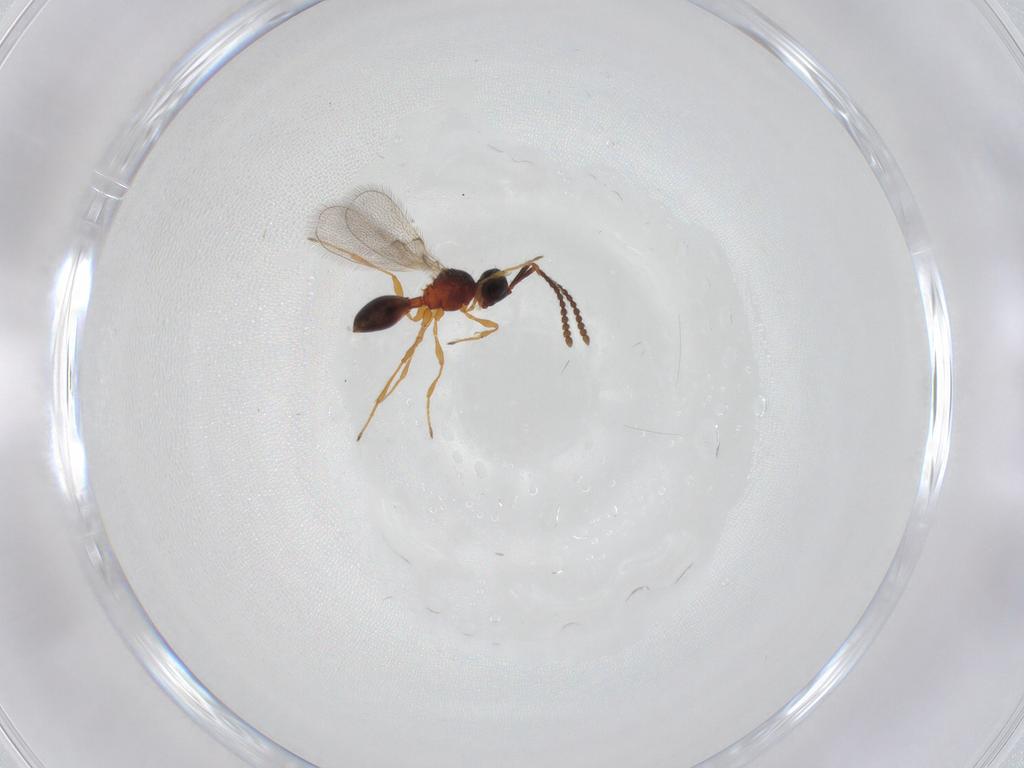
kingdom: Animalia
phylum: Arthropoda
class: Insecta
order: Hymenoptera
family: Diapriidae
